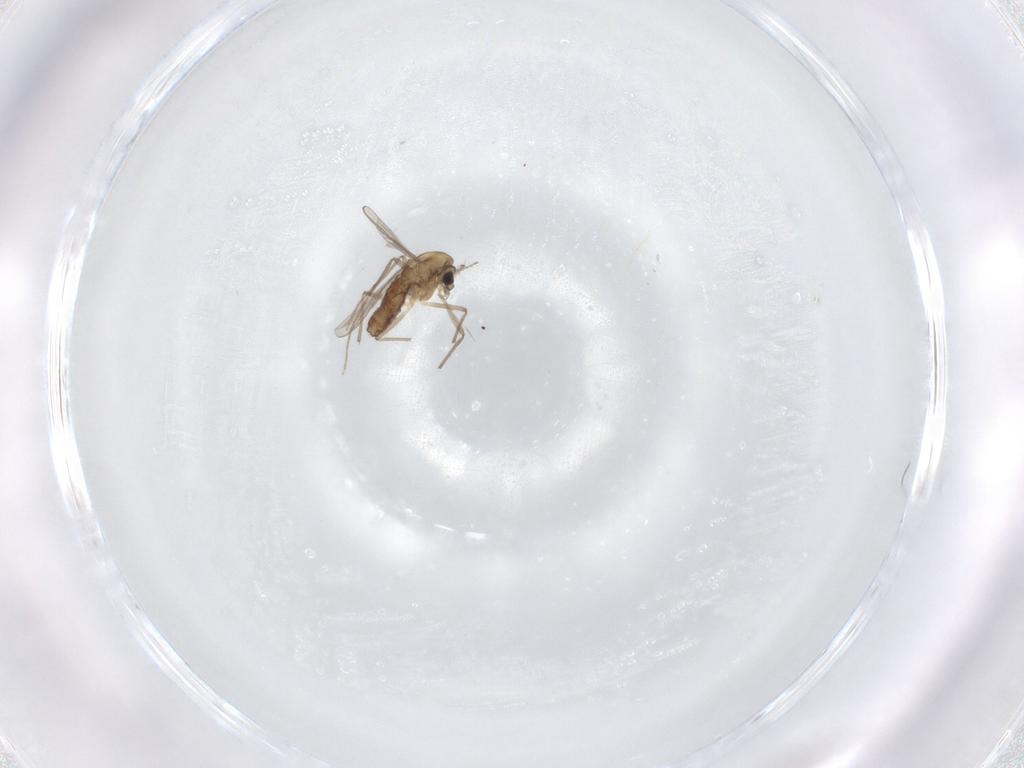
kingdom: Animalia
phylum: Arthropoda
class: Insecta
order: Diptera
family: Chironomidae
